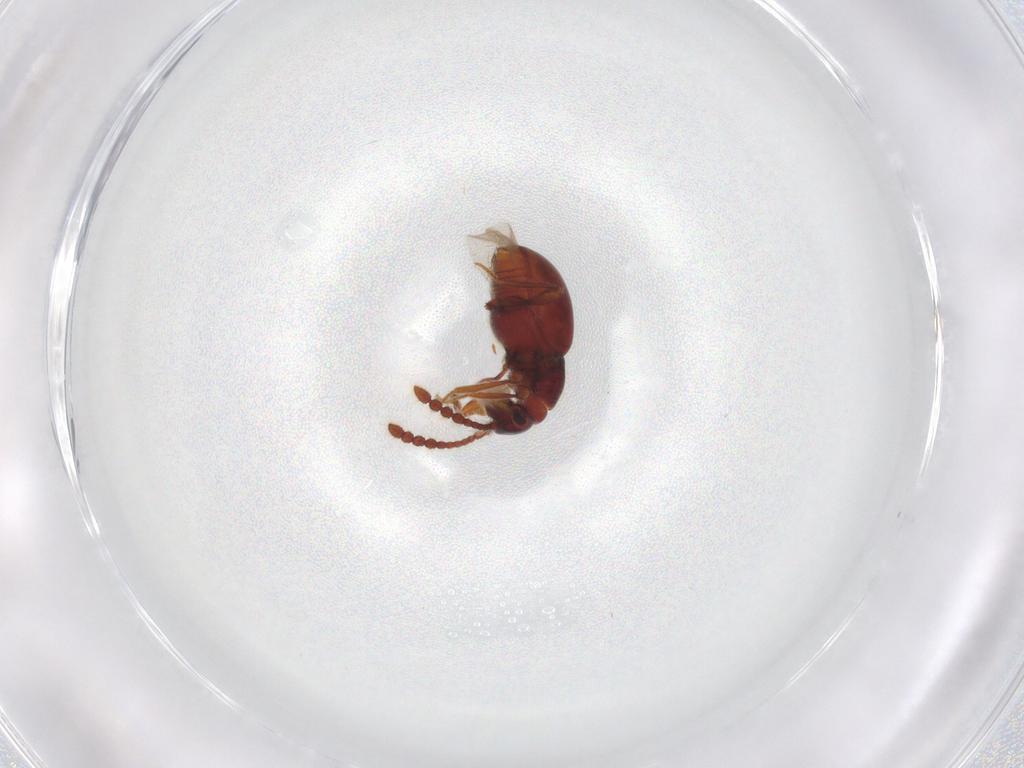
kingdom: Animalia
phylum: Arthropoda
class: Insecta
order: Coleoptera
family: Staphylinidae
